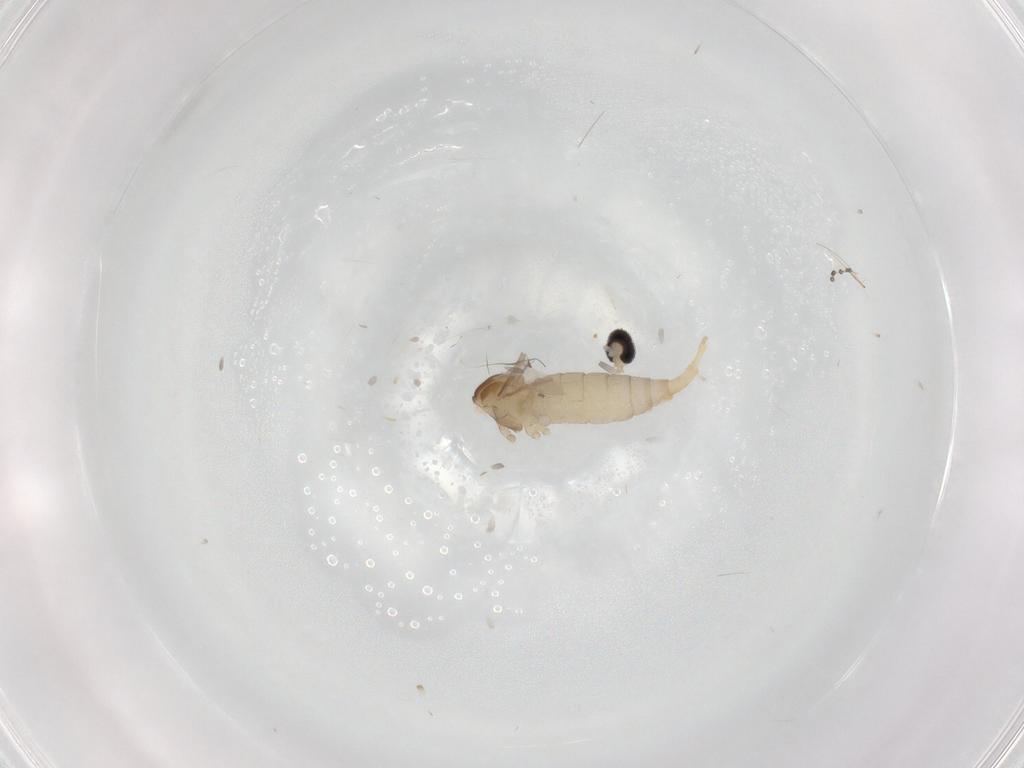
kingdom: Animalia
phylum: Arthropoda
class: Insecta
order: Diptera
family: Cecidomyiidae
